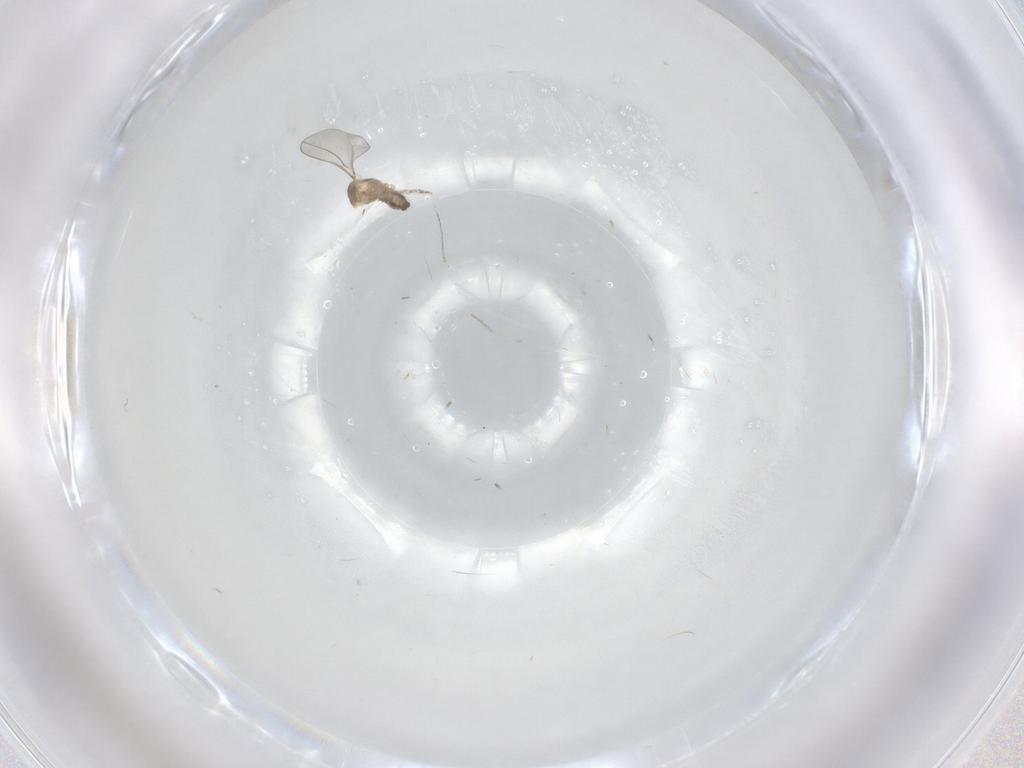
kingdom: Animalia
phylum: Arthropoda
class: Insecta
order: Diptera
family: Cecidomyiidae
